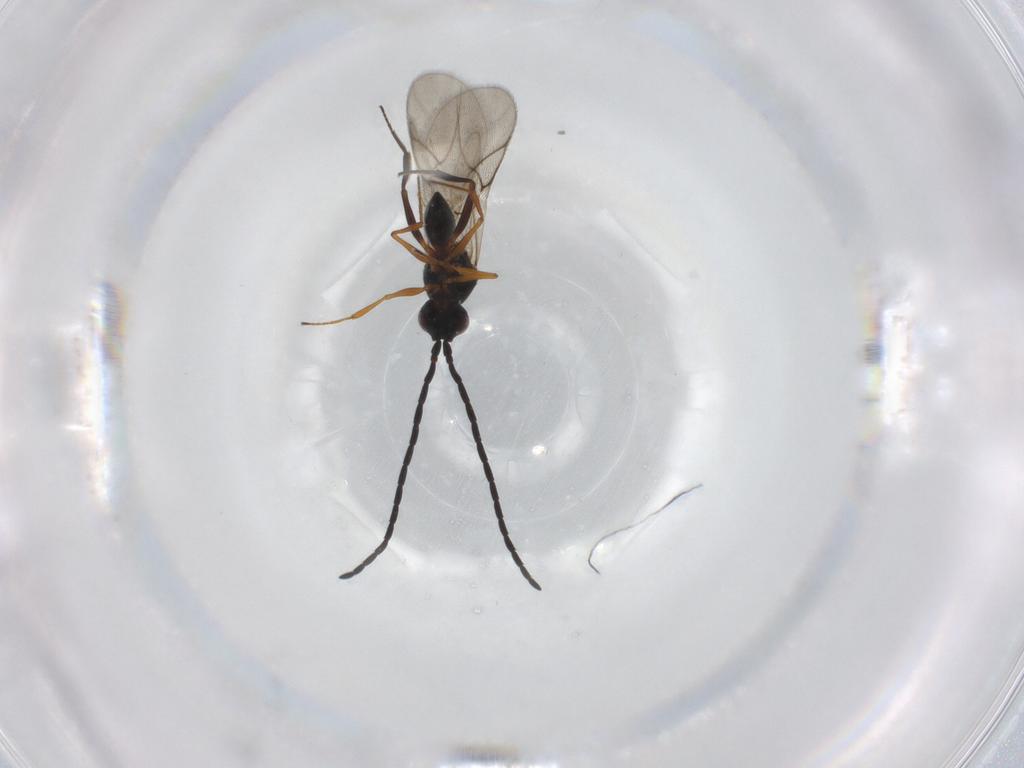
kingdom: Animalia
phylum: Arthropoda
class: Insecta
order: Hymenoptera
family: Figitidae
